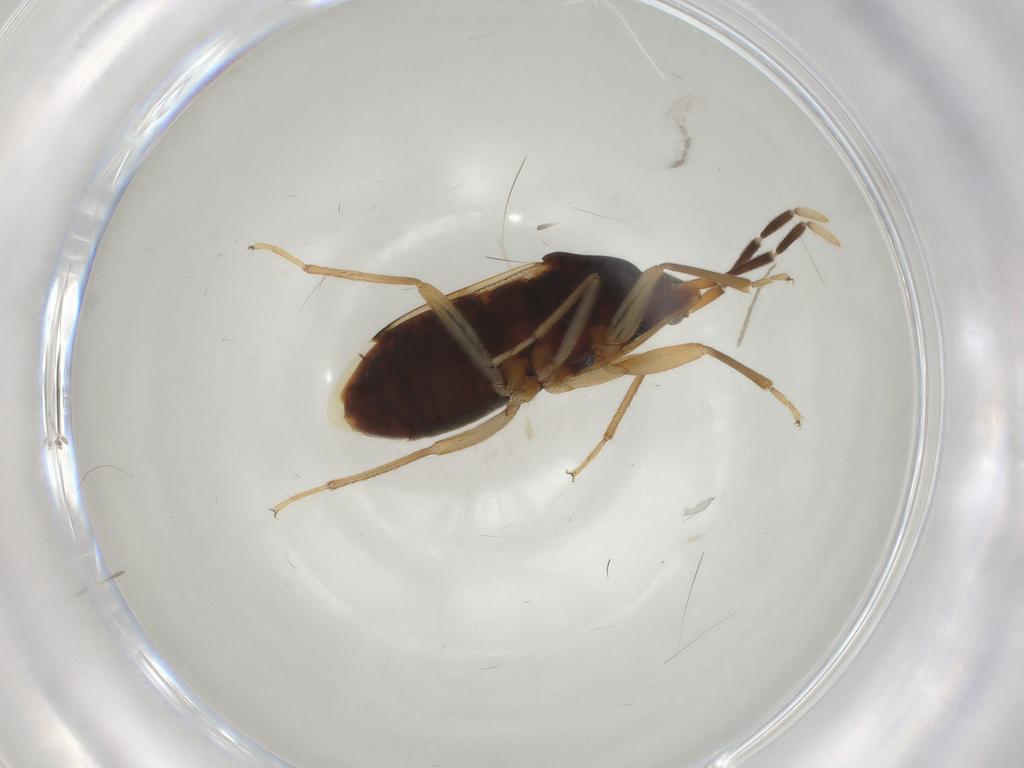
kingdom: Animalia
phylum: Arthropoda
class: Insecta
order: Hemiptera
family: Rhyparochromidae
